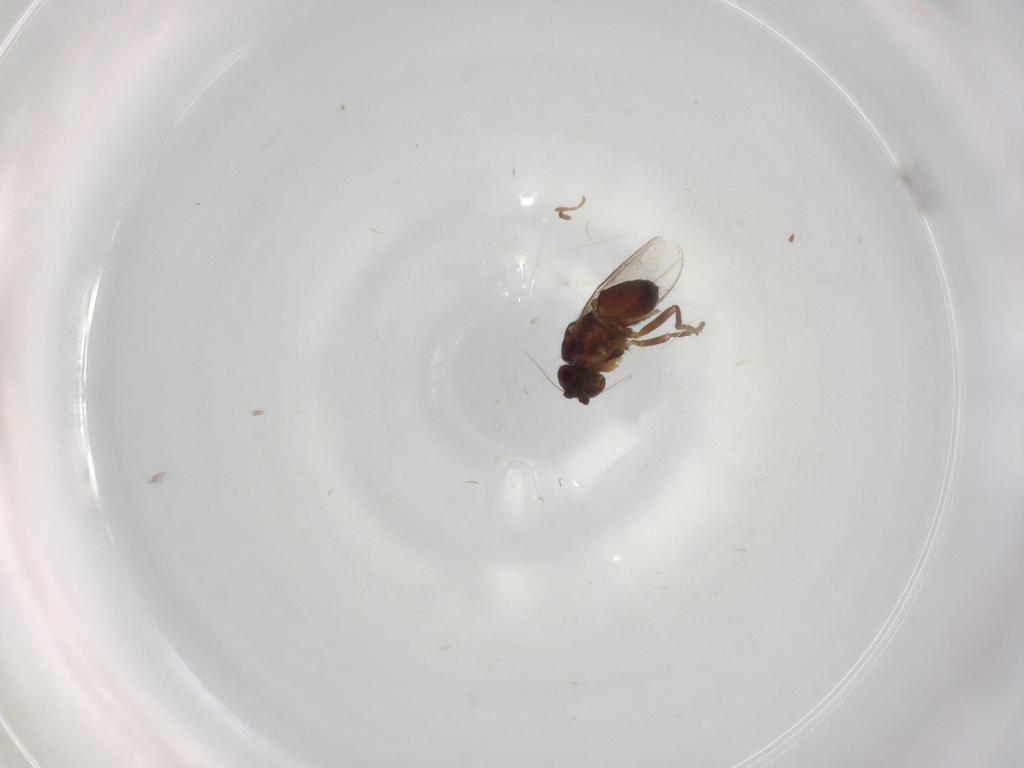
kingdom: Animalia
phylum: Arthropoda
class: Insecta
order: Diptera
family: Sphaeroceridae
